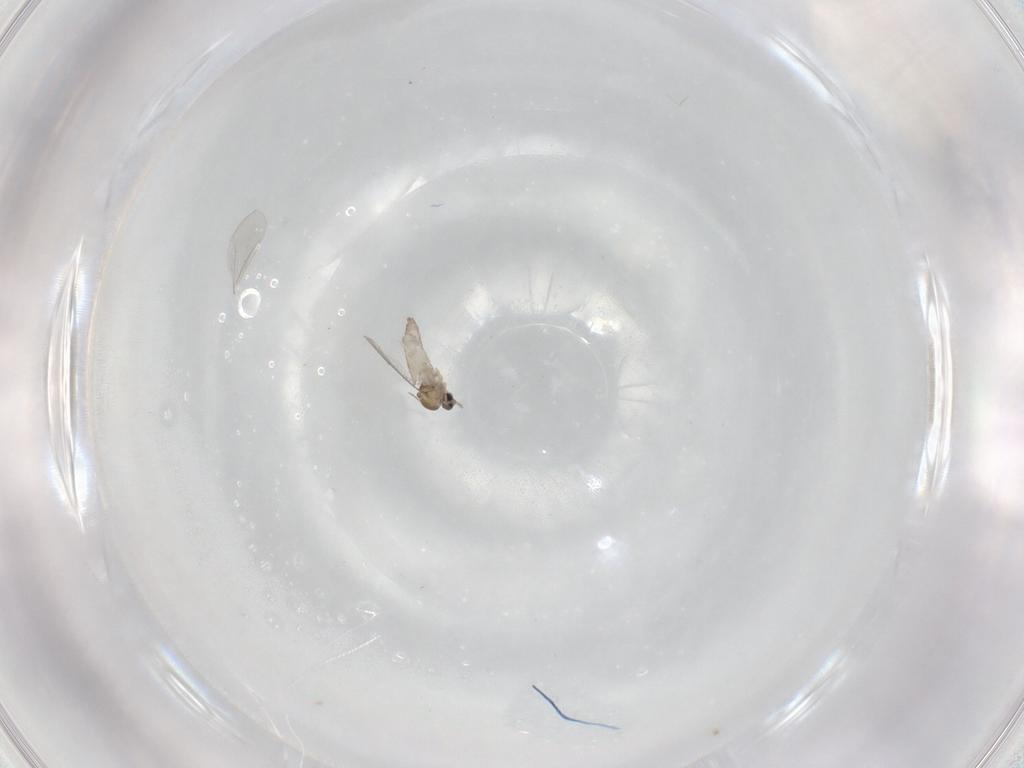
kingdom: Animalia
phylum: Arthropoda
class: Insecta
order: Diptera
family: Cecidomyiidae
